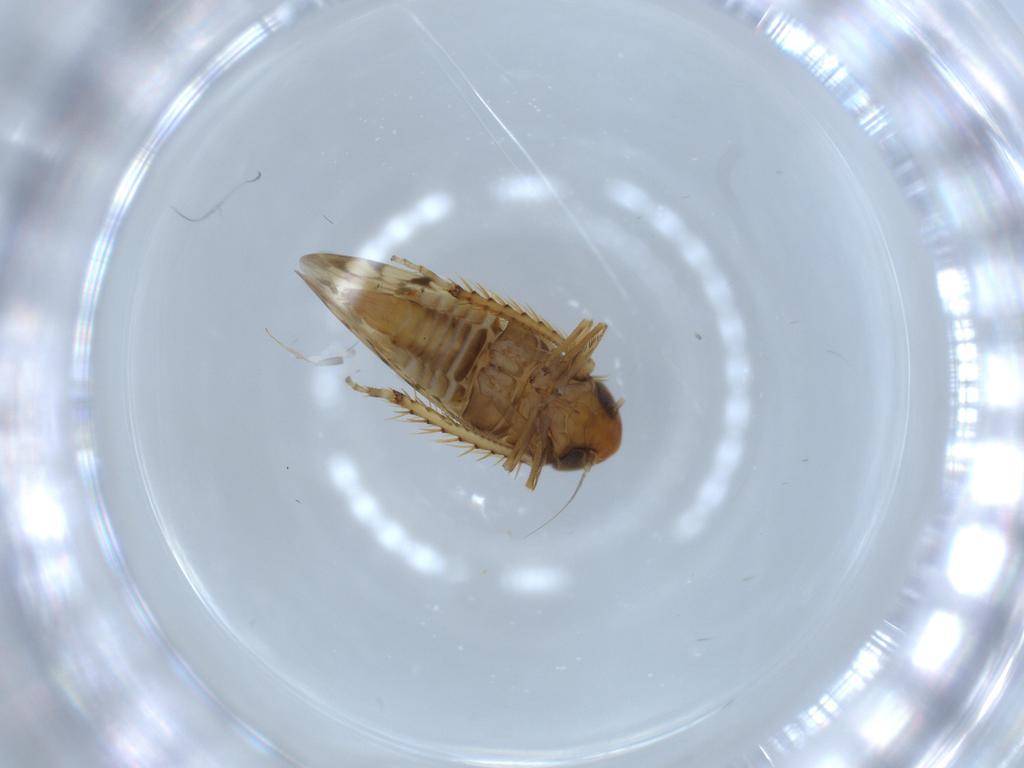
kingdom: Animalia
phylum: Arthropoda
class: Insecta
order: Hemiptera
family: Cicadellidae
